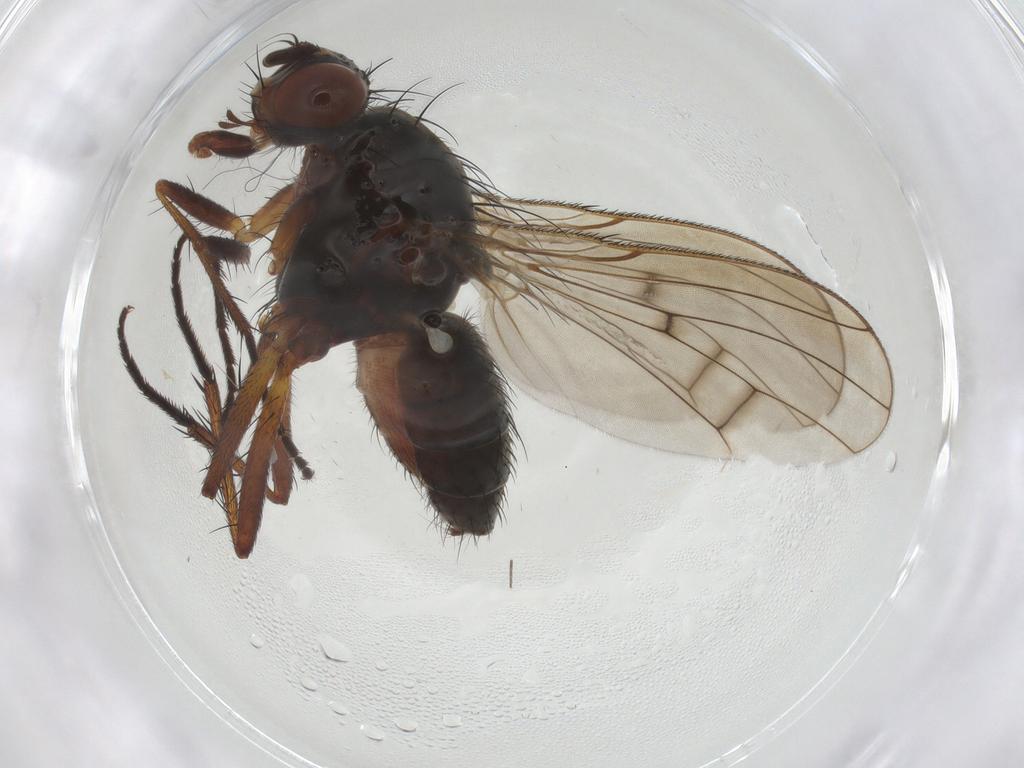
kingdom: Animalia
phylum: Arthropoda
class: Insecta
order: Diptera
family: Anthomyiidae
